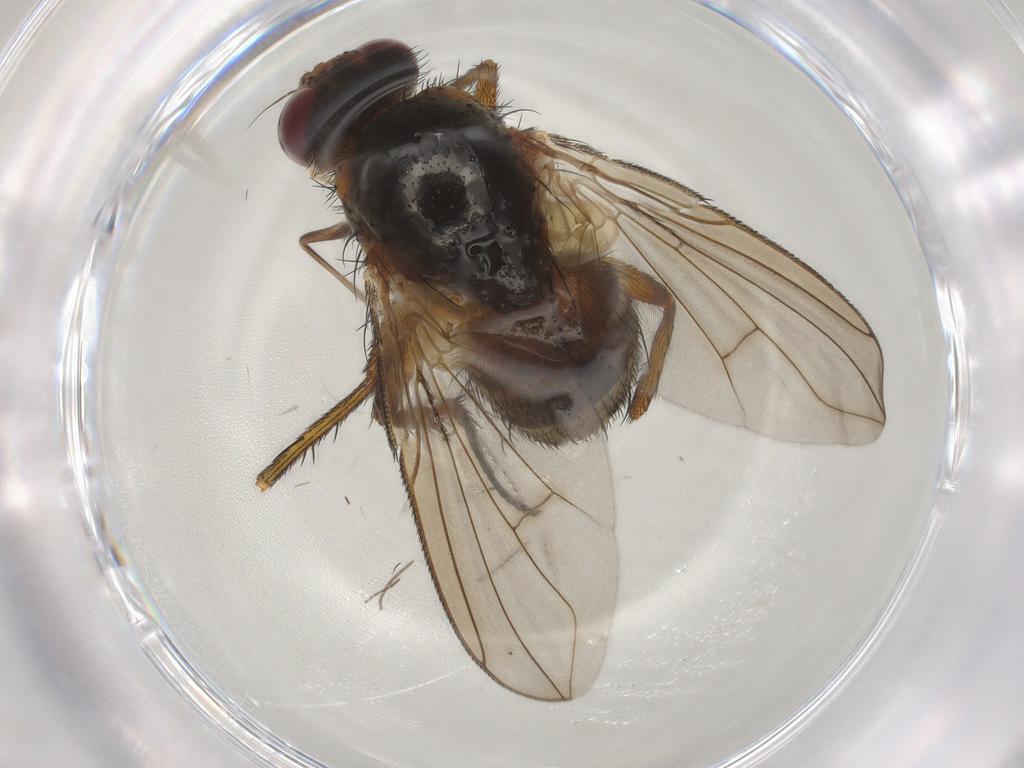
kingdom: Animalia
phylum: Arthropoda
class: Insecta
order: Diptera
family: Tachinidae
